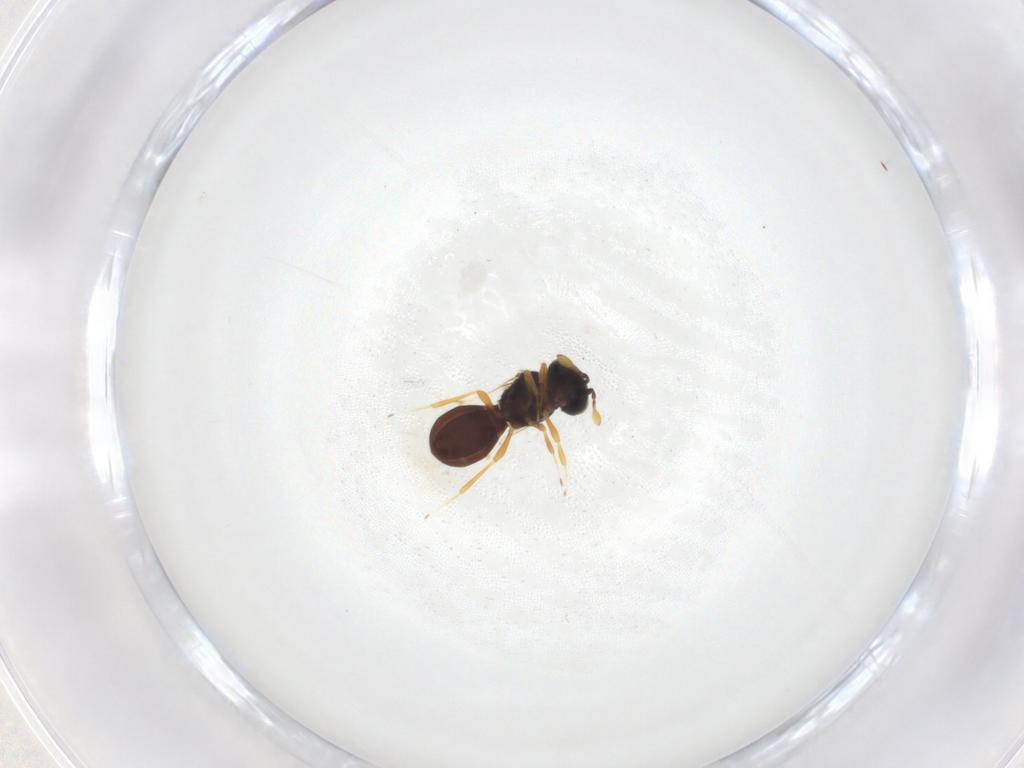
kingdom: Animalia
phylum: Arthropoda
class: Insecta
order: Hymenoptera
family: Scelionidae
